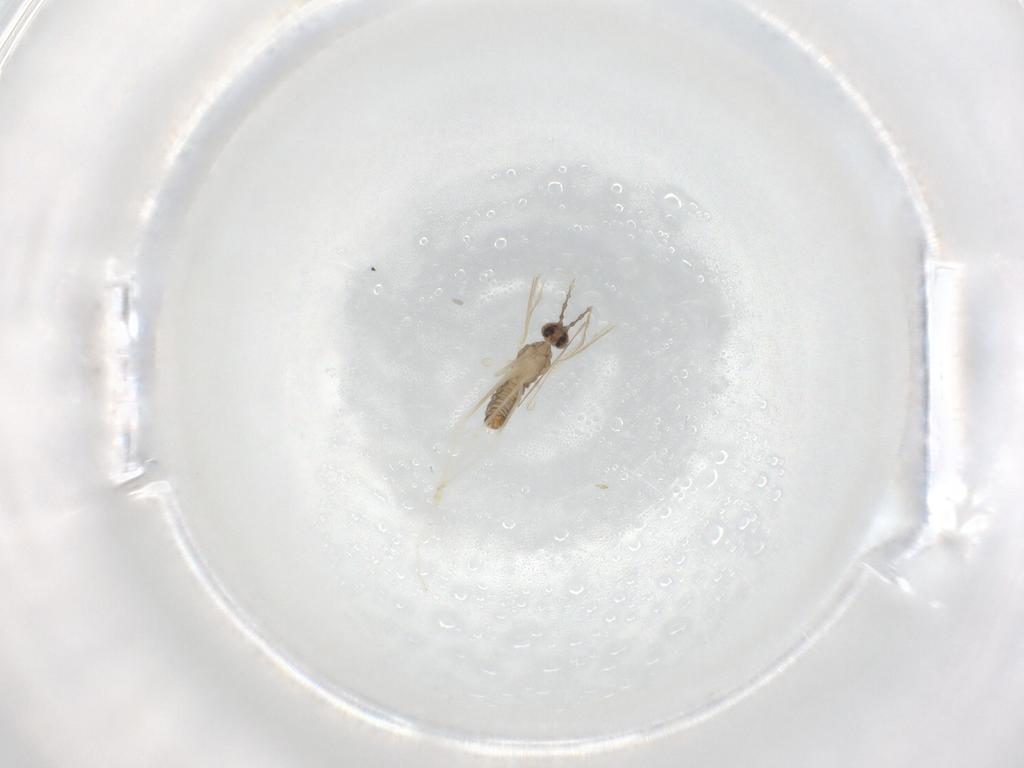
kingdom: Animalia
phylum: Arthropoda
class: Insecta
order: Diptera
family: Cecidomyiidae
